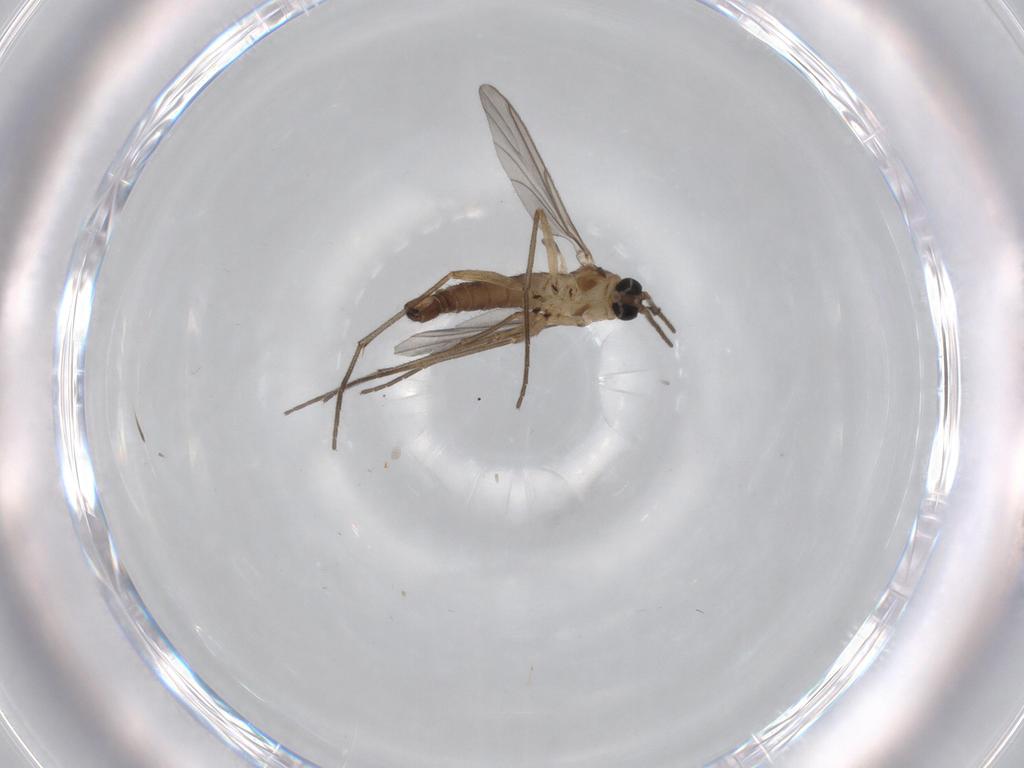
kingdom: Animalia
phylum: Arthropoda
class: Insecta
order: Diptera
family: Sciaridae
